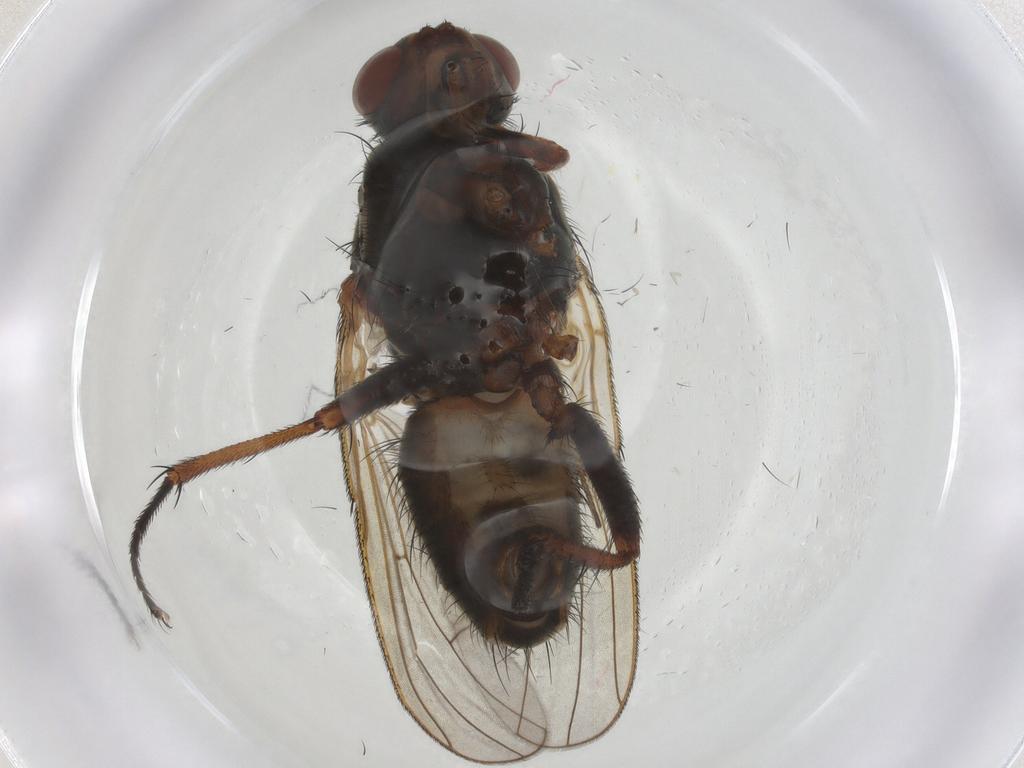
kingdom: Animalia
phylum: Arthropoda
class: Insecta
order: Diptera
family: Anthomyiidae
